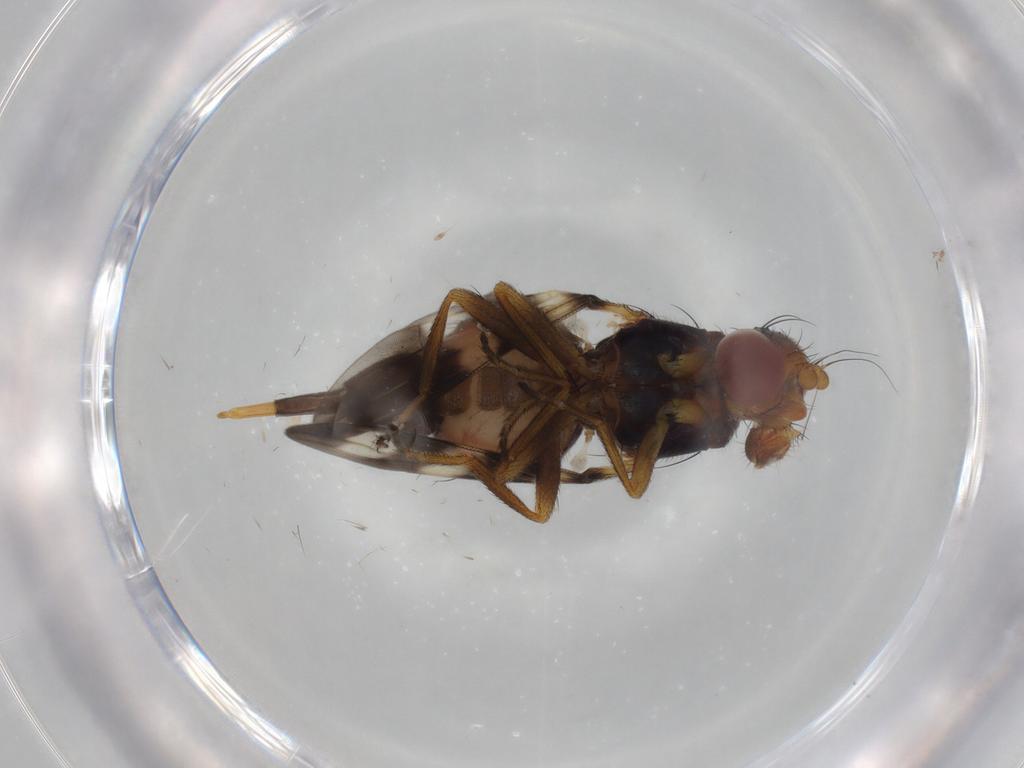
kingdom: Animalia
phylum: Arthropoda
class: Insecta
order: Diptera
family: Ulidiidae
